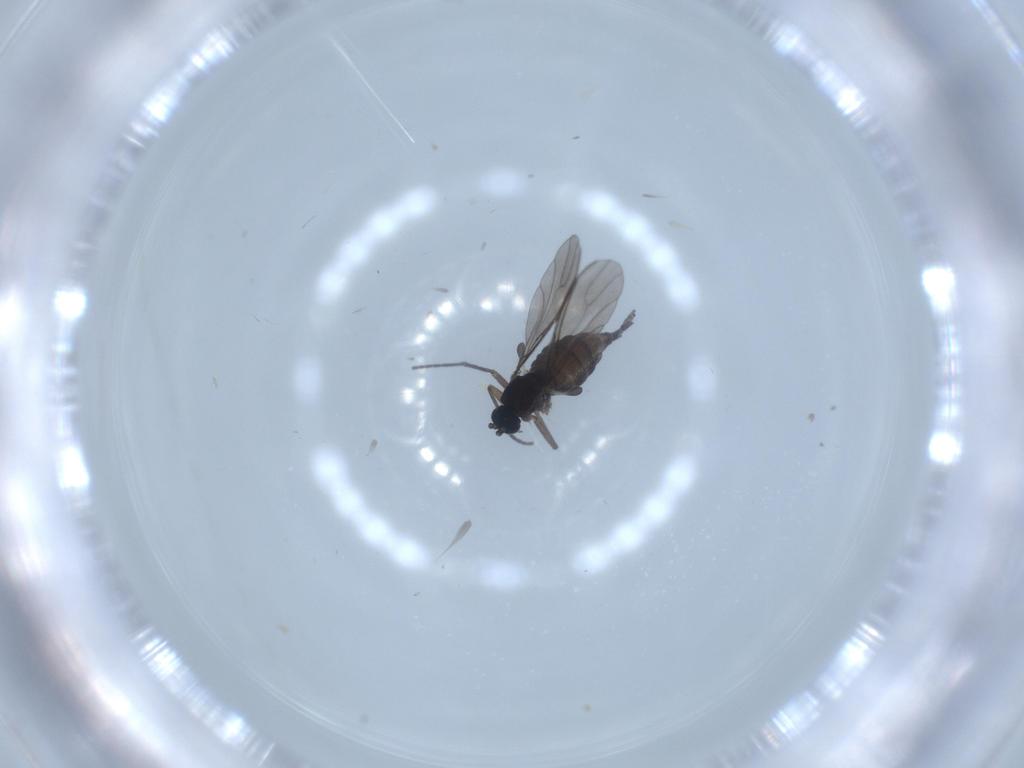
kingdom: Animalia
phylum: Arthropoda
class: Insecta
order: Diptera
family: Sciaridae
